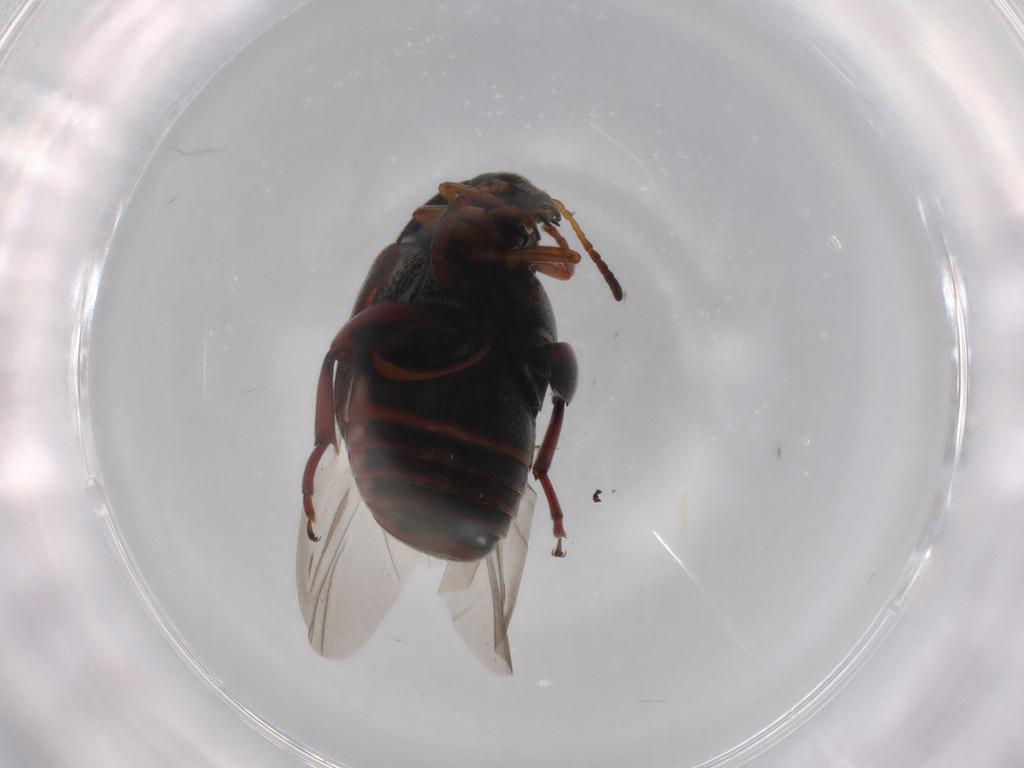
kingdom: Animalia
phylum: Arthropoda
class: Insecta
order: Coleoptera
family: Chrysomelidae
